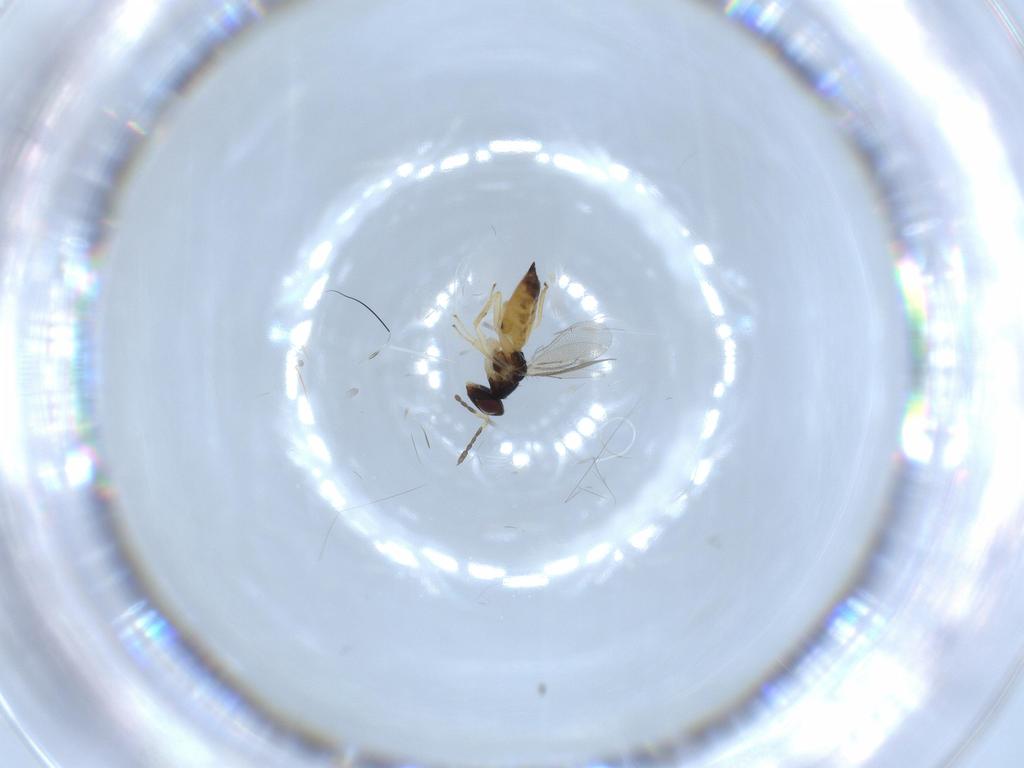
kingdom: Animalia
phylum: Arthropoda
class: Insecta
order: Hymenoptera
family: Eulophidae
